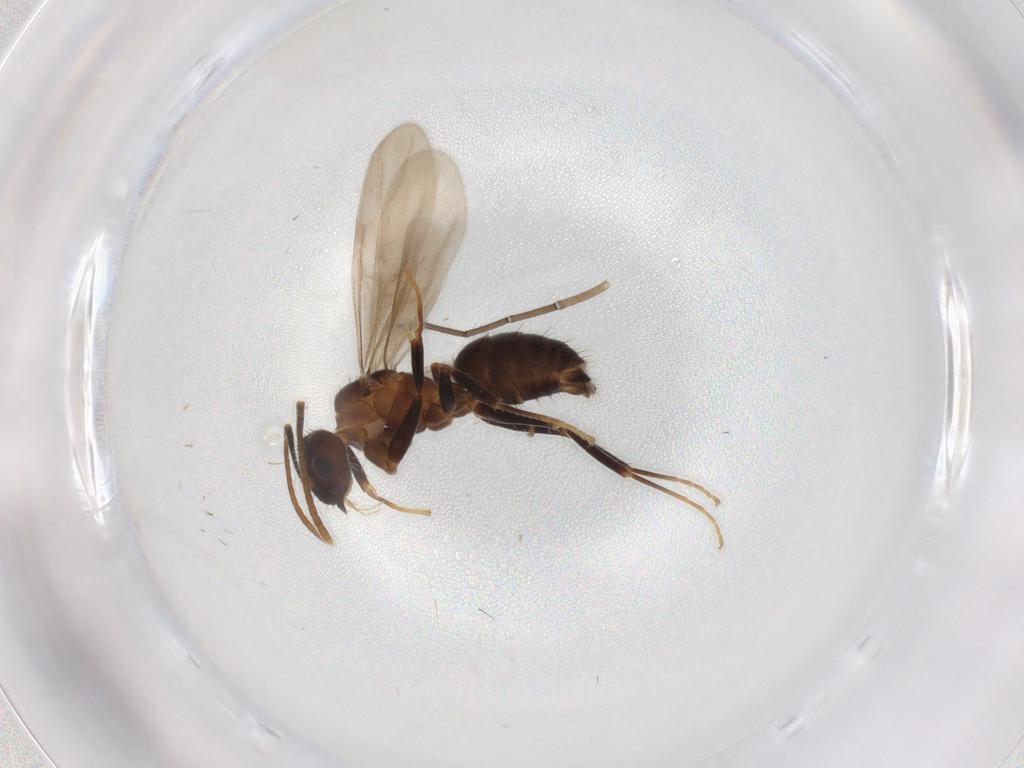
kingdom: Animalia
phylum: Arthropoda
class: Insecta
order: Hymenoptera
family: Formicidae
